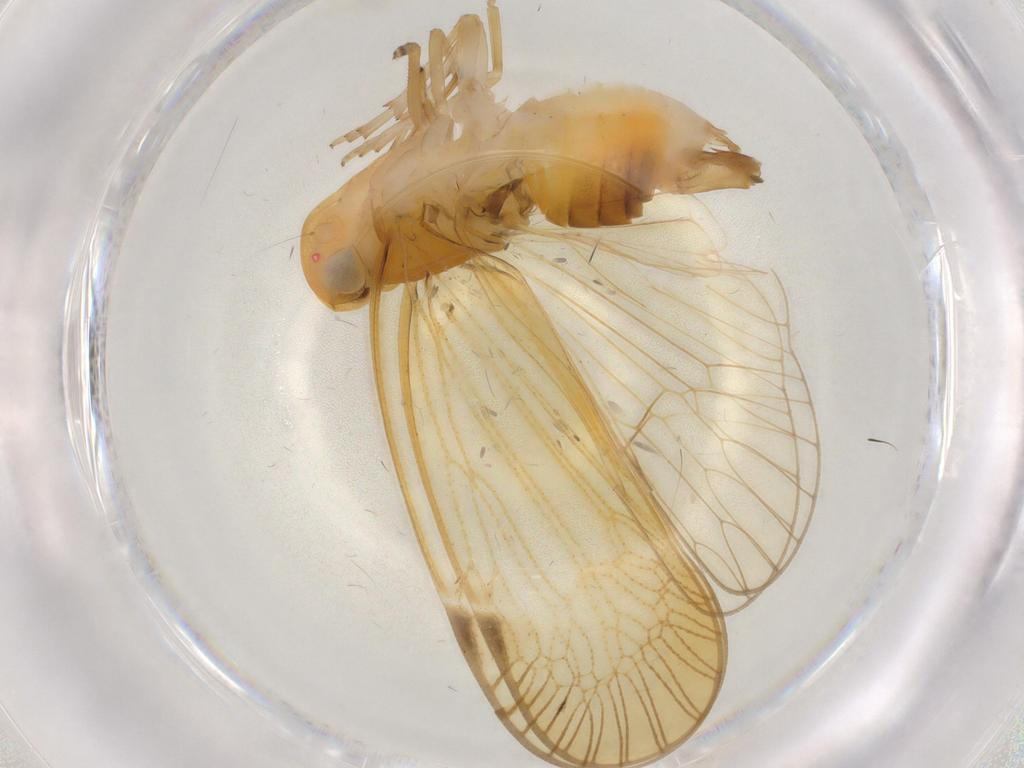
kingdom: Animalia
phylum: Arthropoda
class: Insecta
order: Hemiptera
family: Cixiidae
